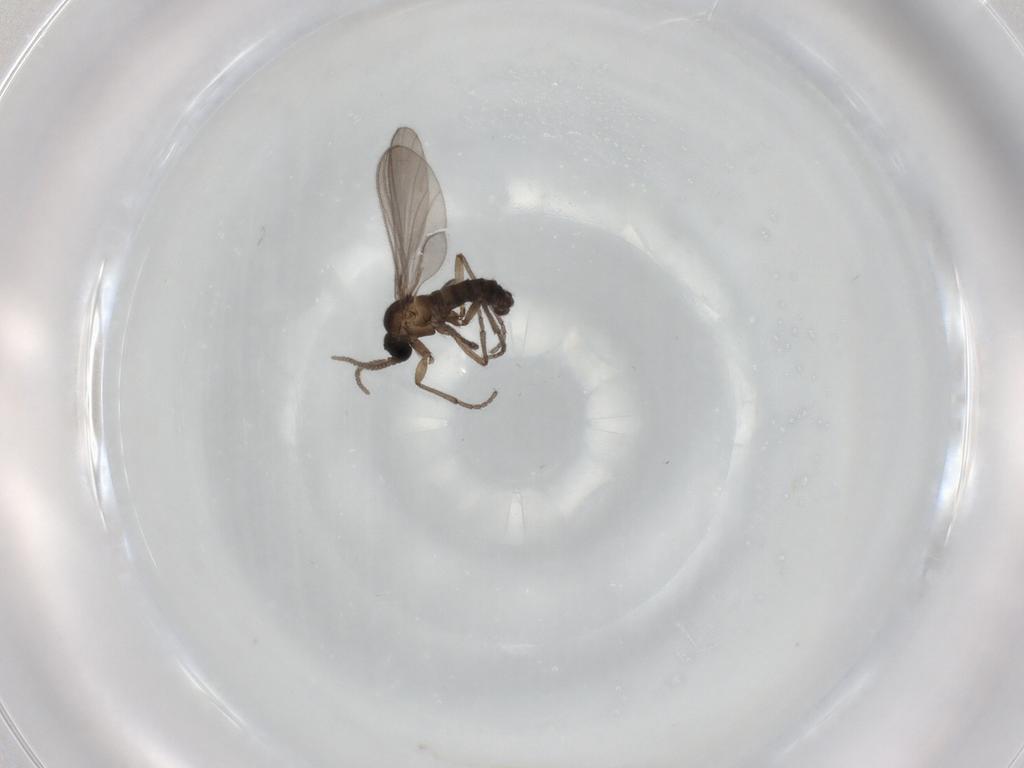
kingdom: Animalia
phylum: Arthropoda
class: Insecta
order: Diptera
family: Sciaridae
